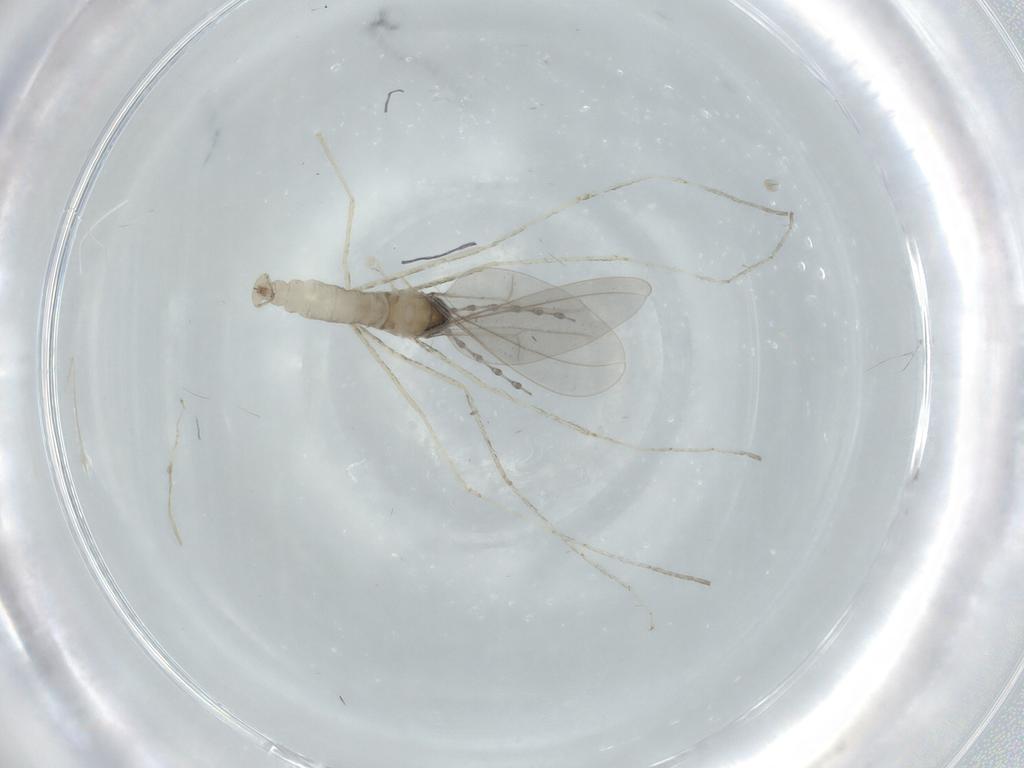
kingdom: Animalia
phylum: Arthropoda
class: Insecta
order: Diptera
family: Cecidomyiidae
